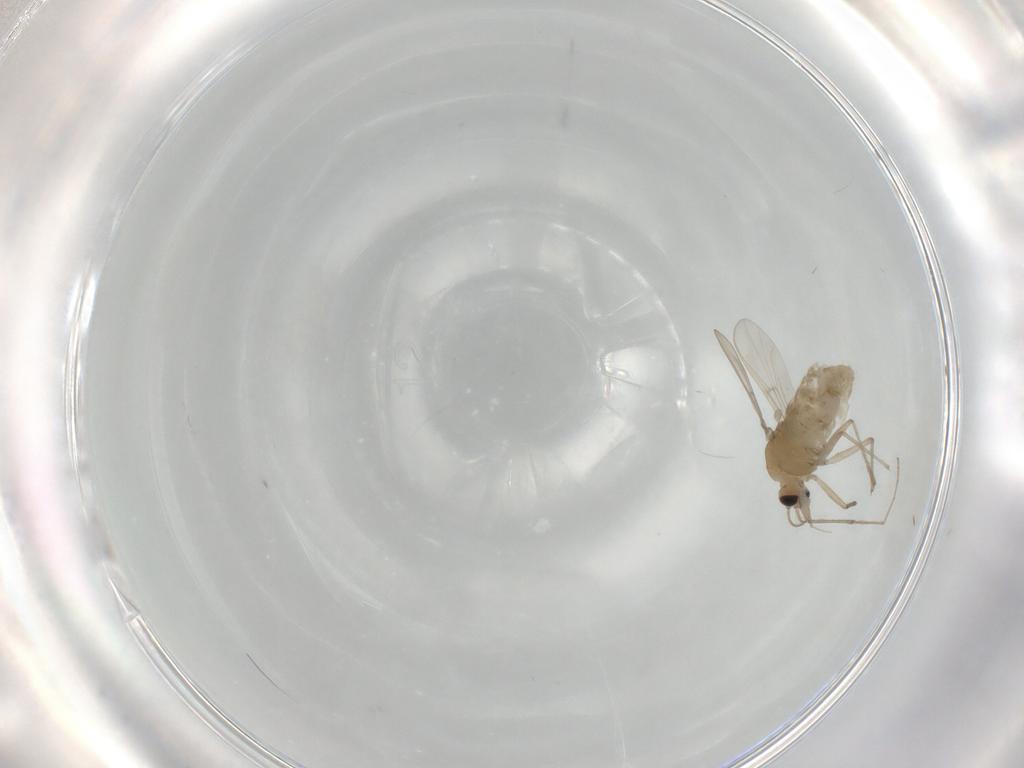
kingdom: Animalia
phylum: Arthropoda
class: Insecta
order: Diptera
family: Chironomidae
